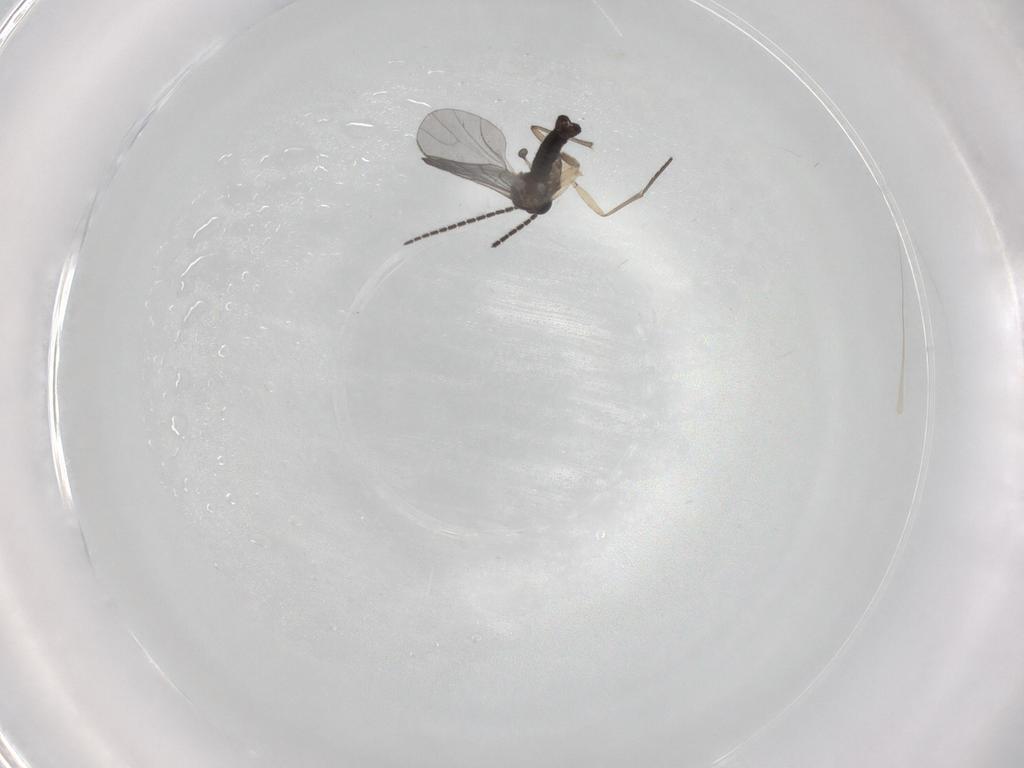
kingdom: Animalia
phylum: Arthropoda
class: Insecta
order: Diptera
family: Sciaridae
